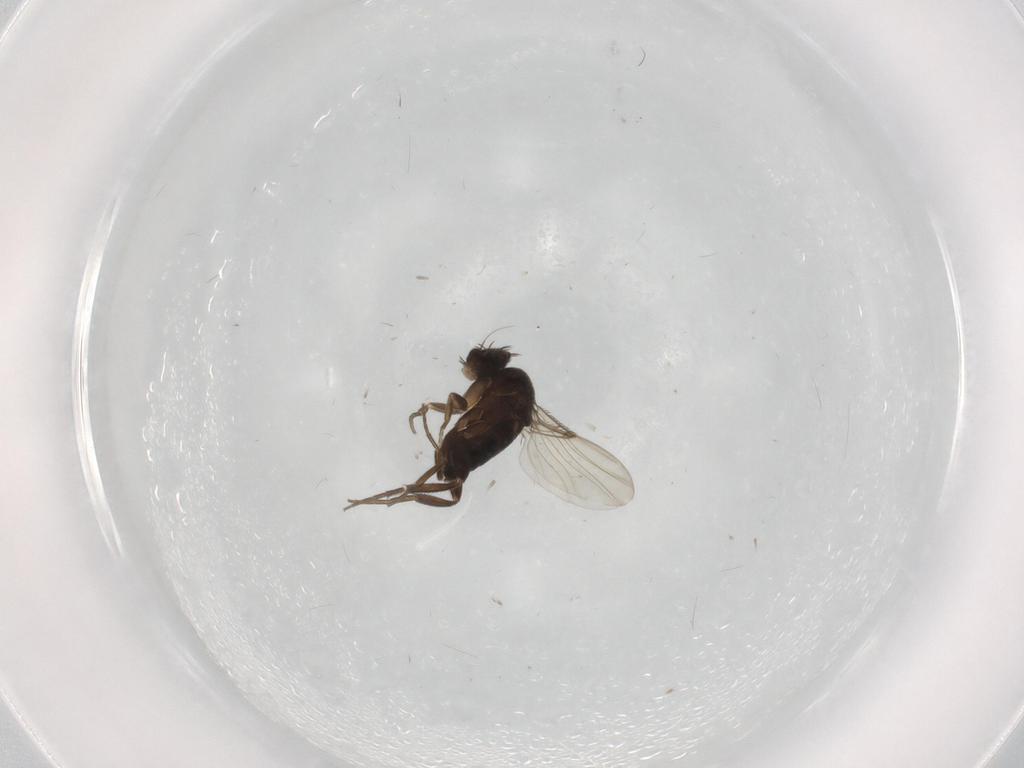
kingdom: Animalia
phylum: Arthropoda
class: Insecta
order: Diptera
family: Phoridae
